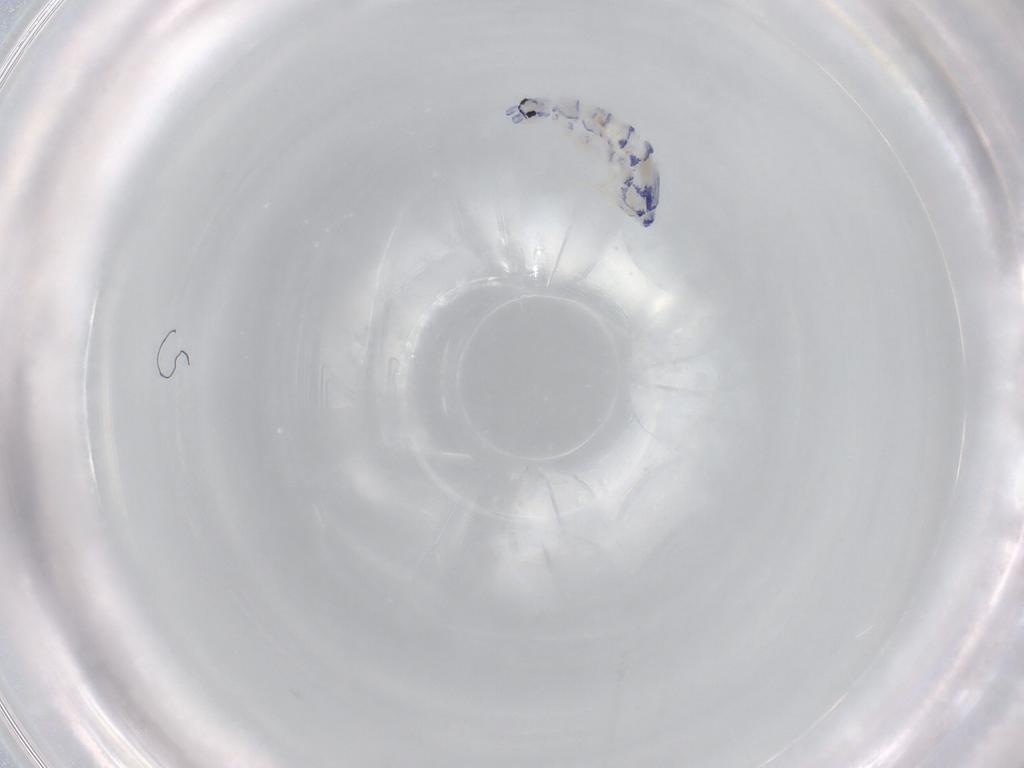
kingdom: Animalia
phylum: Arthropoda
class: Collembola
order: Entomobryomorpha
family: Entomobryidae
